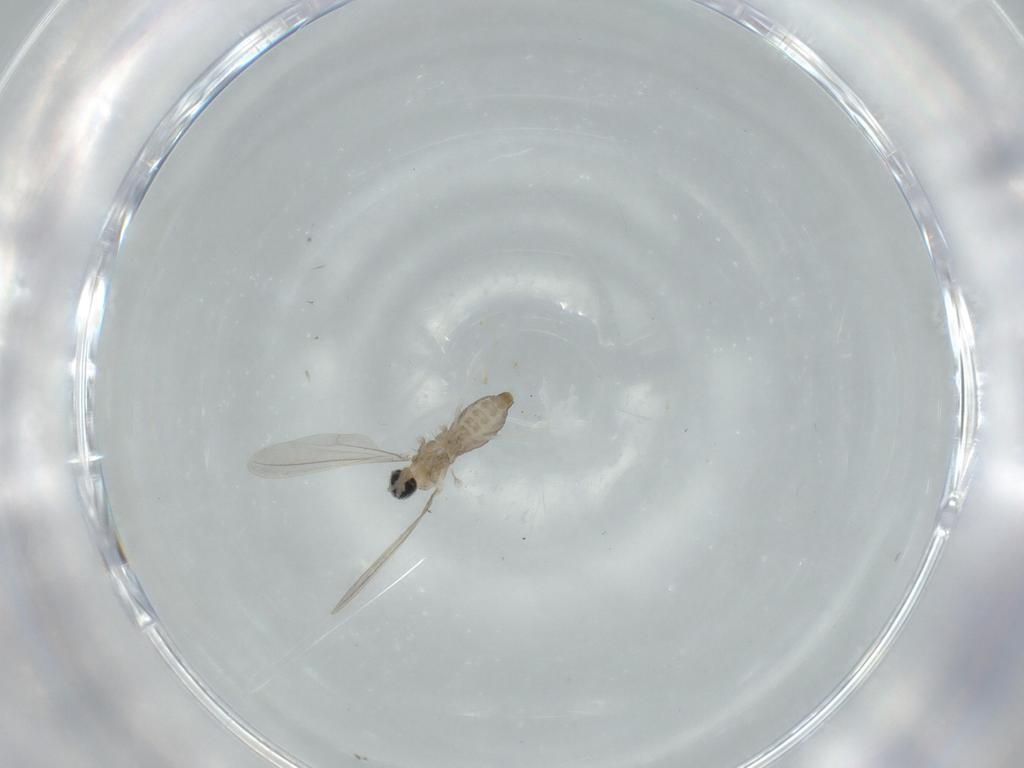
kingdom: Animalia
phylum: Arthropoda
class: Insecta
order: Diptera
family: Cecidomyiidae
